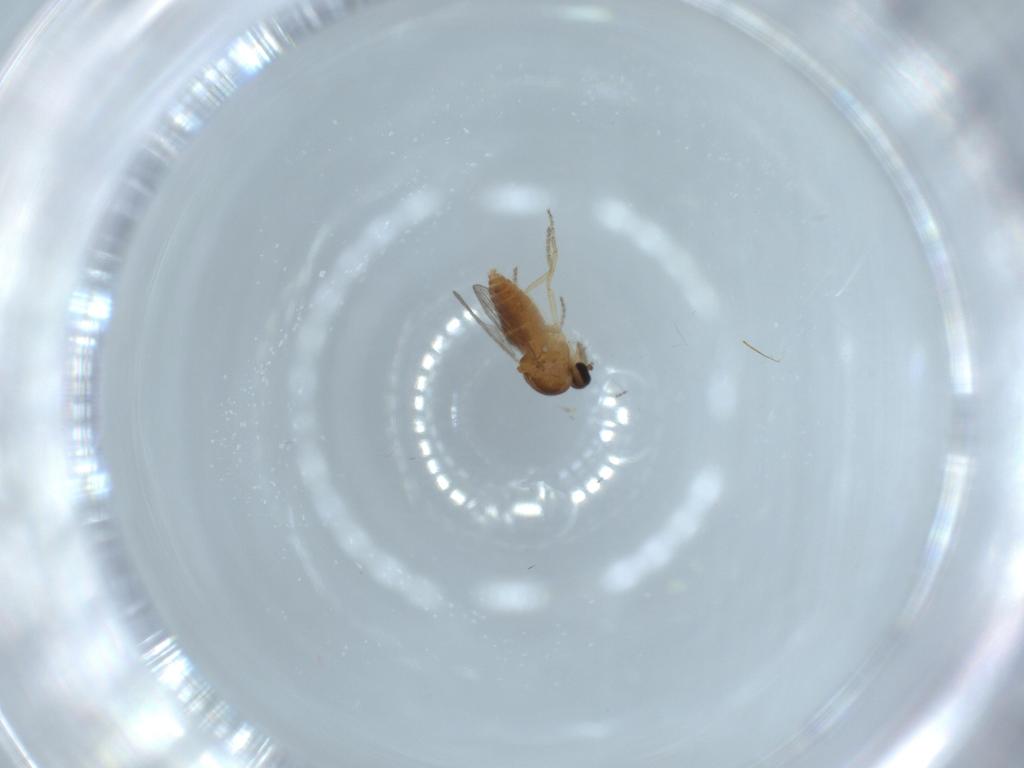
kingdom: Animalia
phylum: Arthropoda
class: Insecta
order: Diptera
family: Ceratopogonidae
